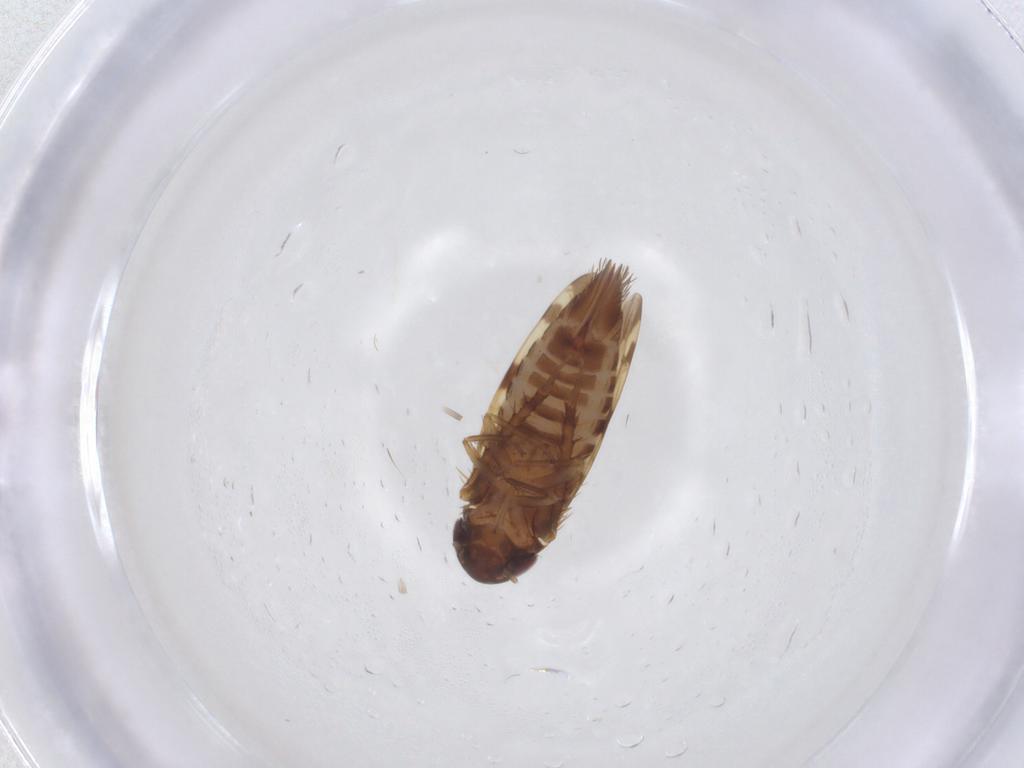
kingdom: Animalia
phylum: Arthropoda
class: Insecta
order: Hemiptera
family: Cicadellidae
